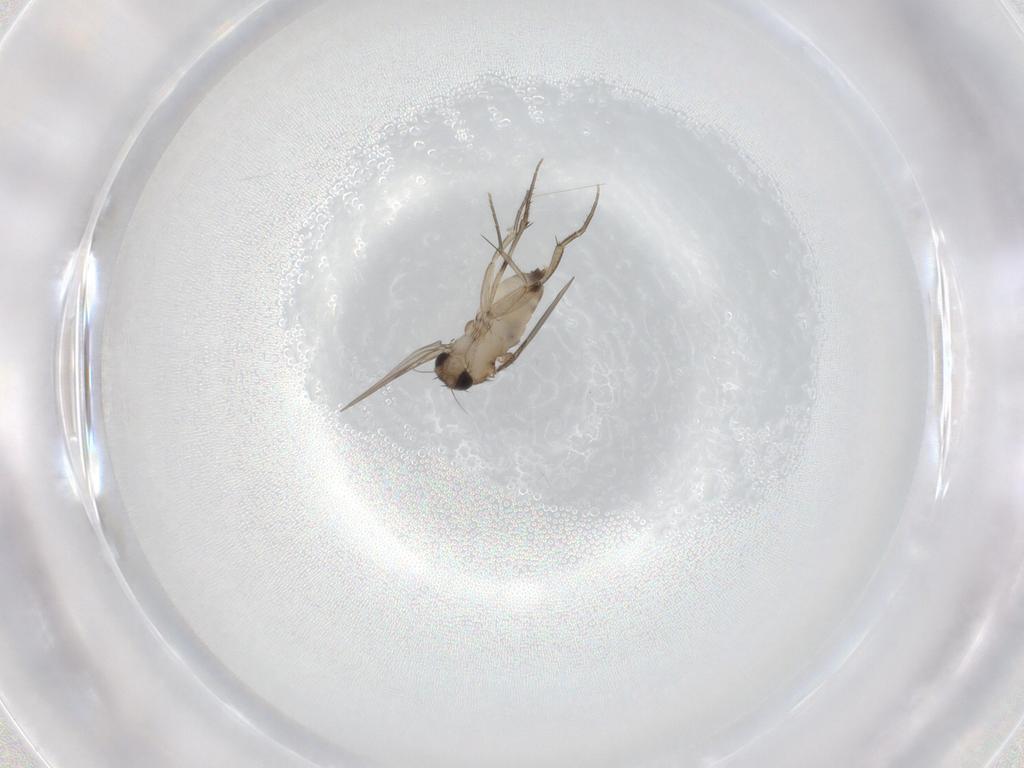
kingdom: Animalia
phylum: Arthropoda
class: Insecta
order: Diptera
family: Phoridae
